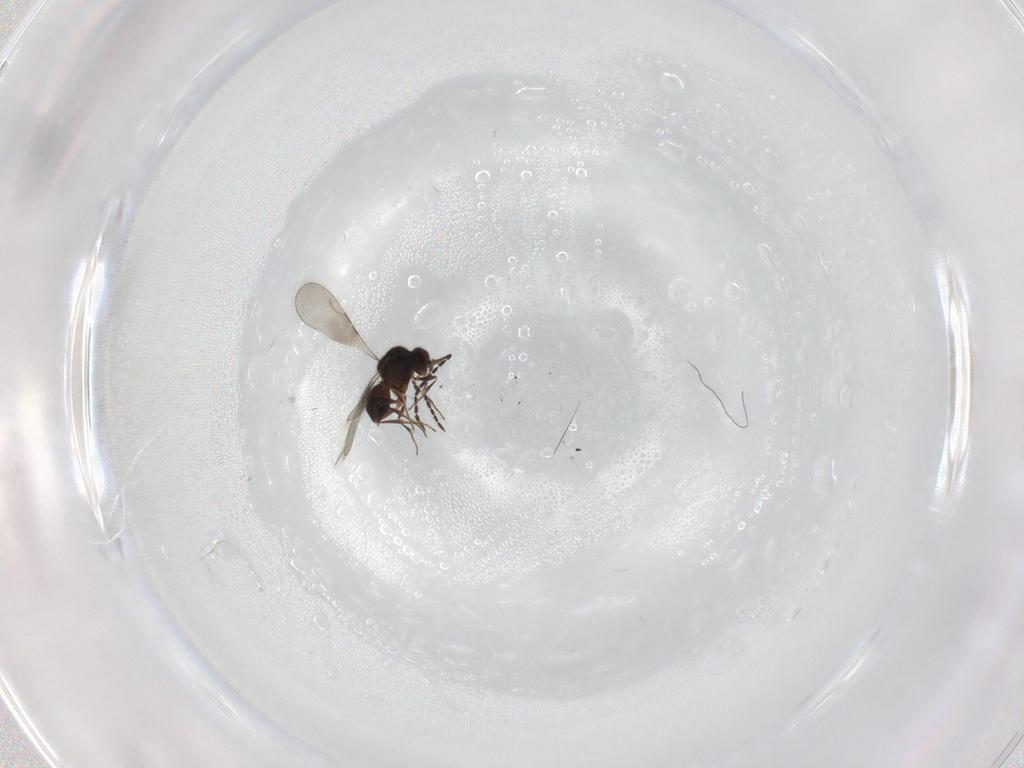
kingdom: Animalia
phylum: Arthropoda
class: Insecta
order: Hymenoptera
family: Ceraphronidae
